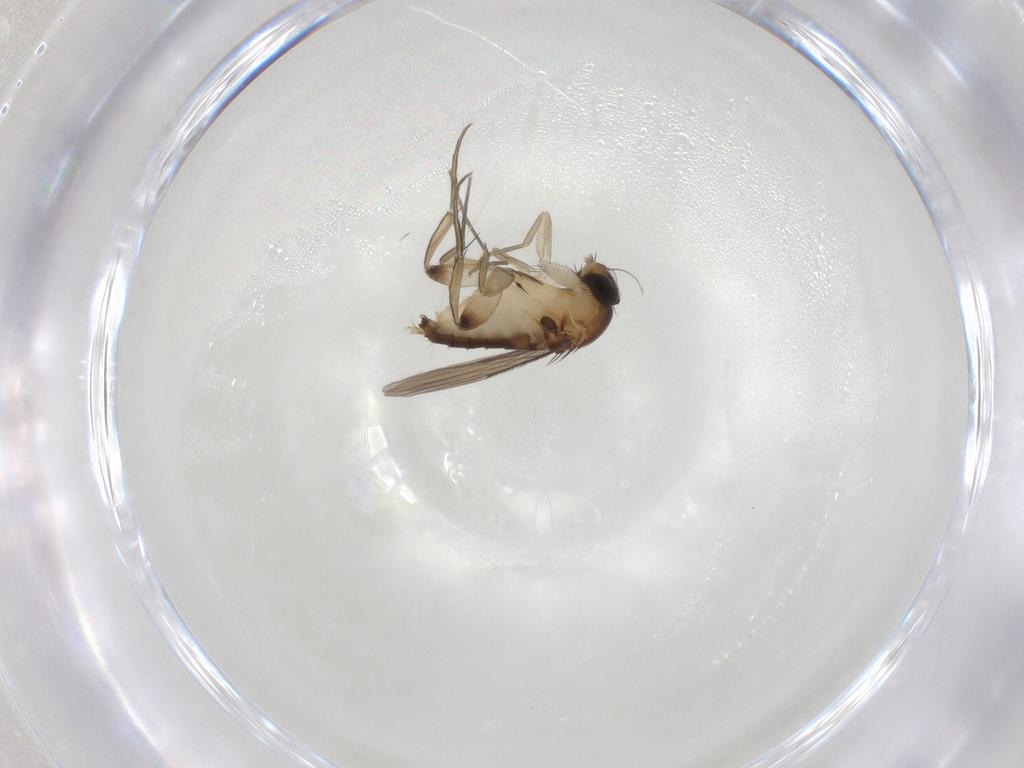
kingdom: Animalia
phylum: Arthropoda
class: Insecta
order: Diptera
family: Phoridae
